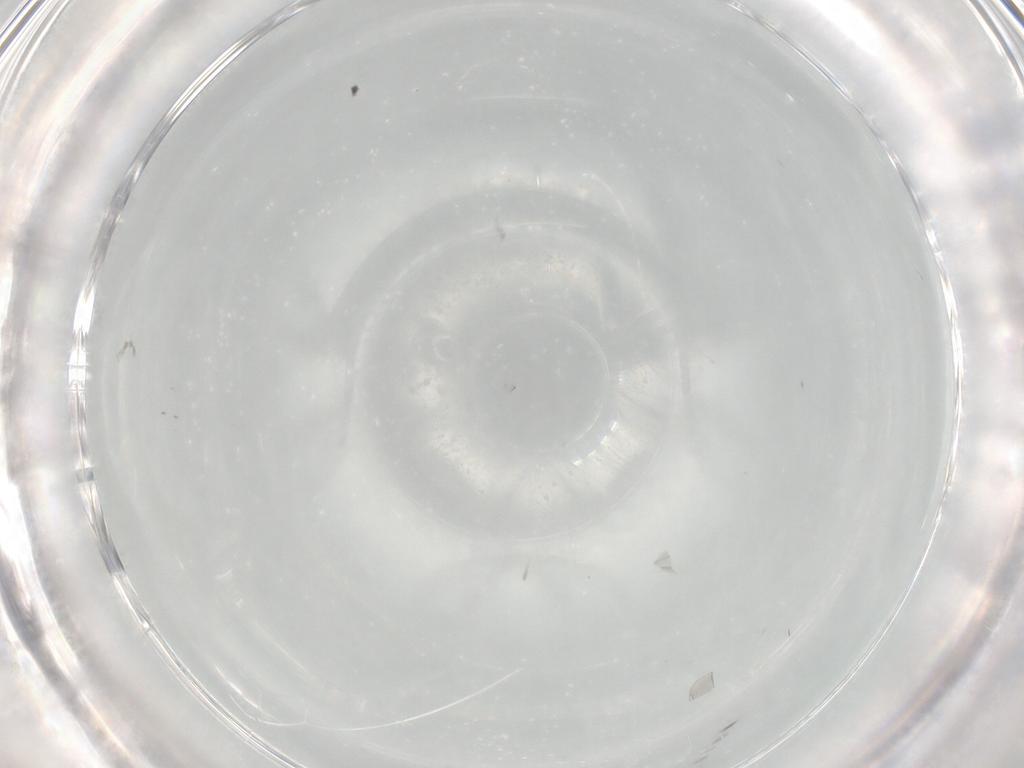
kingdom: Animalia
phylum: Arthropoda
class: Insecta
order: Diptera
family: Cecidomyiidae
